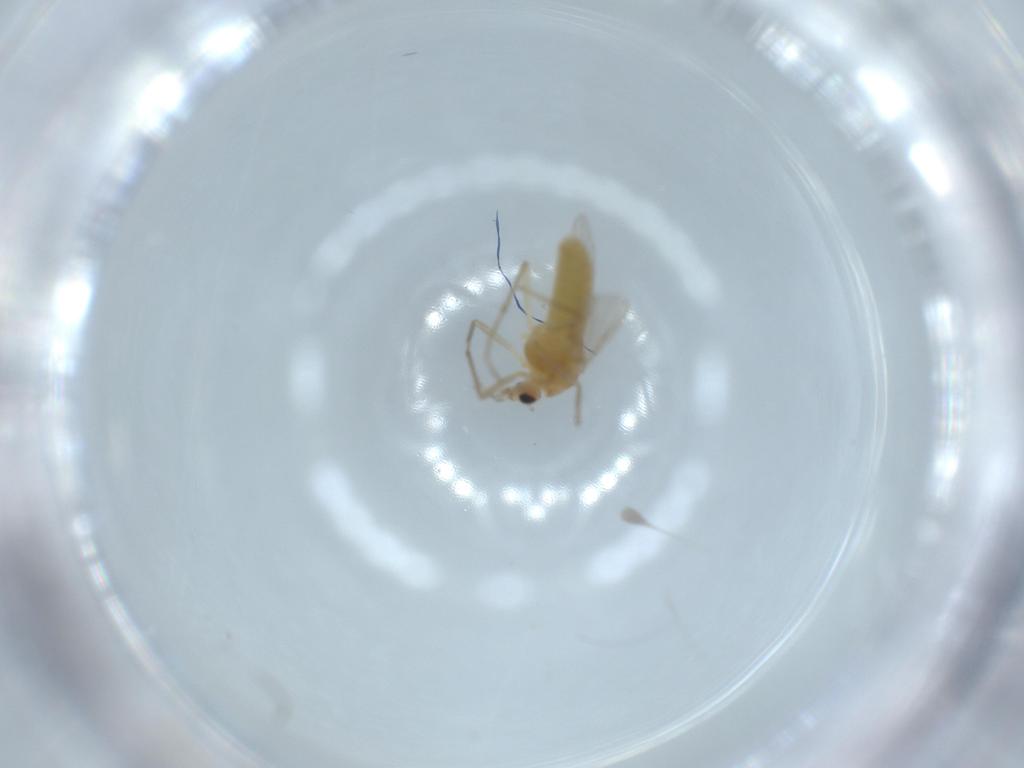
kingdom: Animalia
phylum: Arthropoda
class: Insecta
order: Diptera
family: Chironomidae
